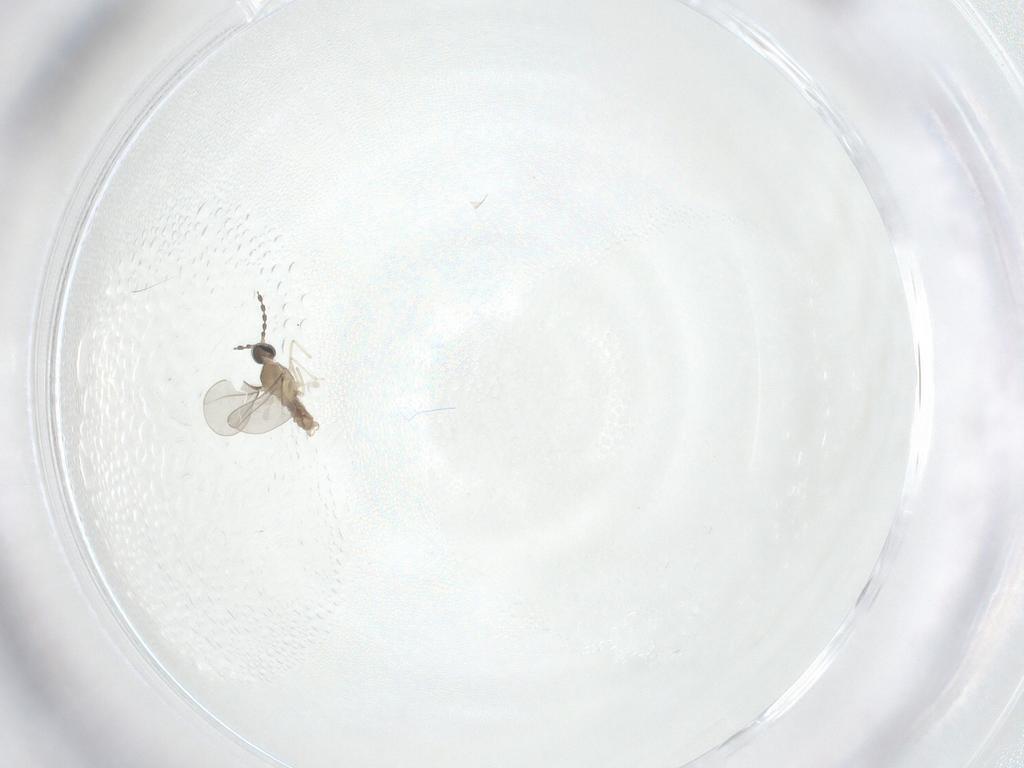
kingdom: Animalia
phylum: Arthropoda
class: Insecta
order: Diptera
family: Cecidomyiidae
